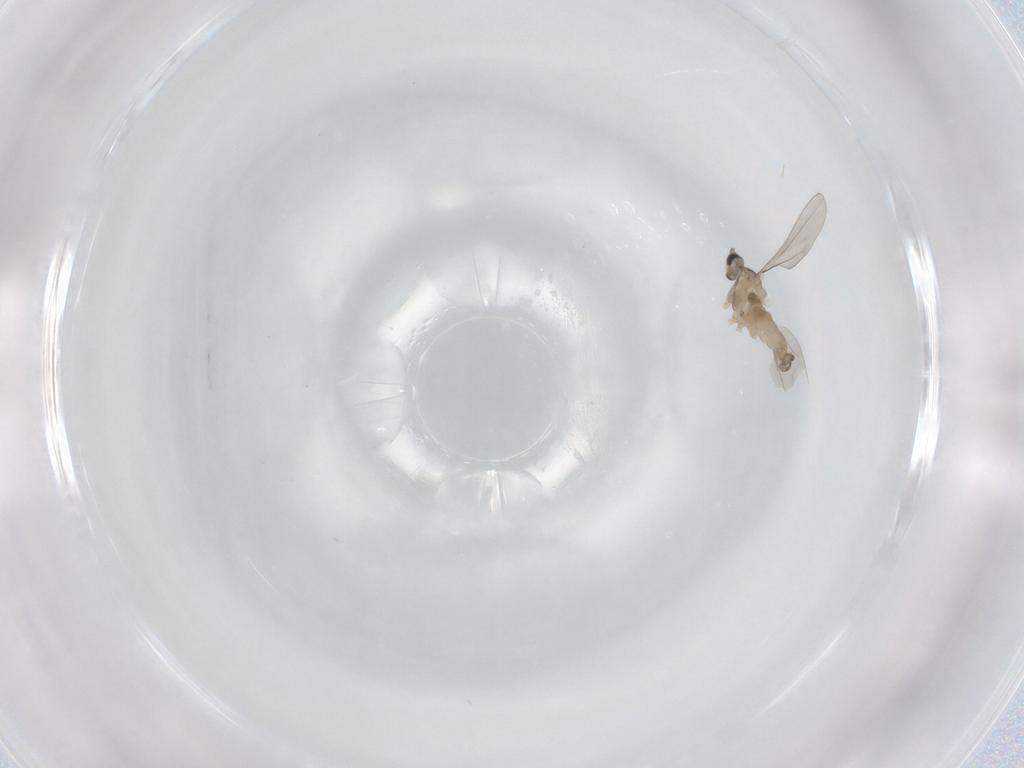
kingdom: Animalia
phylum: Arthropoda
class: Insecta
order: Diptera
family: Cecidomyiidae
